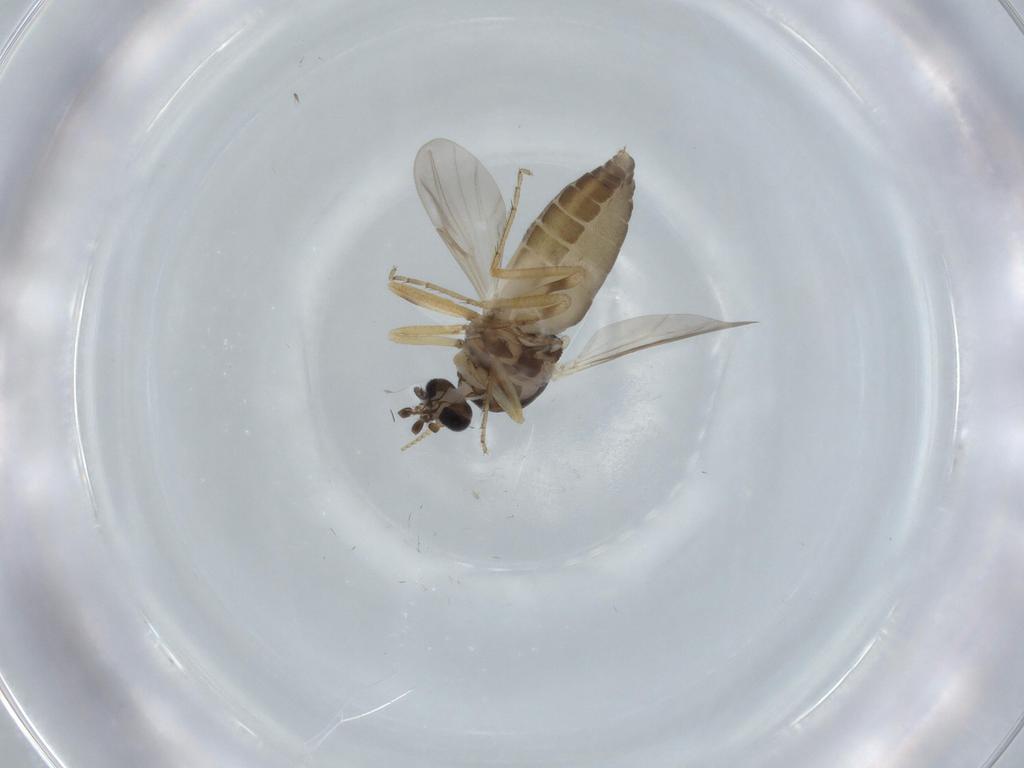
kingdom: Animalia
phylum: Arthropoda
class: Insecta
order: Diptera
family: Ceratopogonidae
